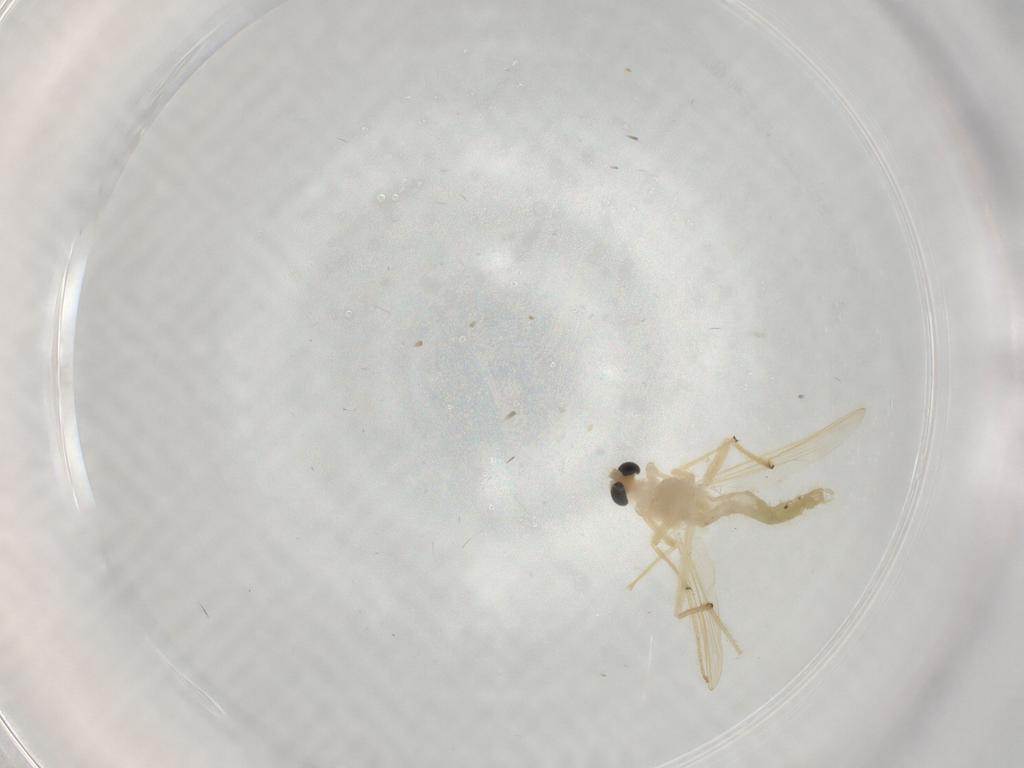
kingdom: Animalia
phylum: Arthropoda
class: Insecta
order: Diptera
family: Chironomidae
